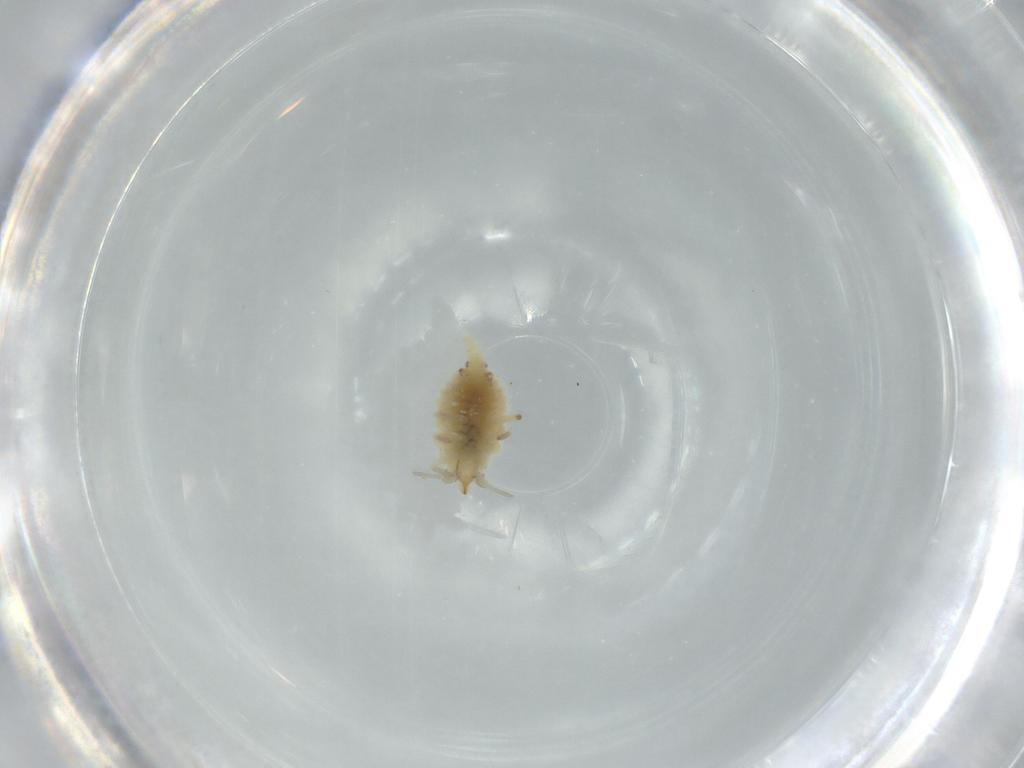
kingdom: Animalia
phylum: Arthropoda
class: Insecta
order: Neuroptera
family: Coniopterygidae
